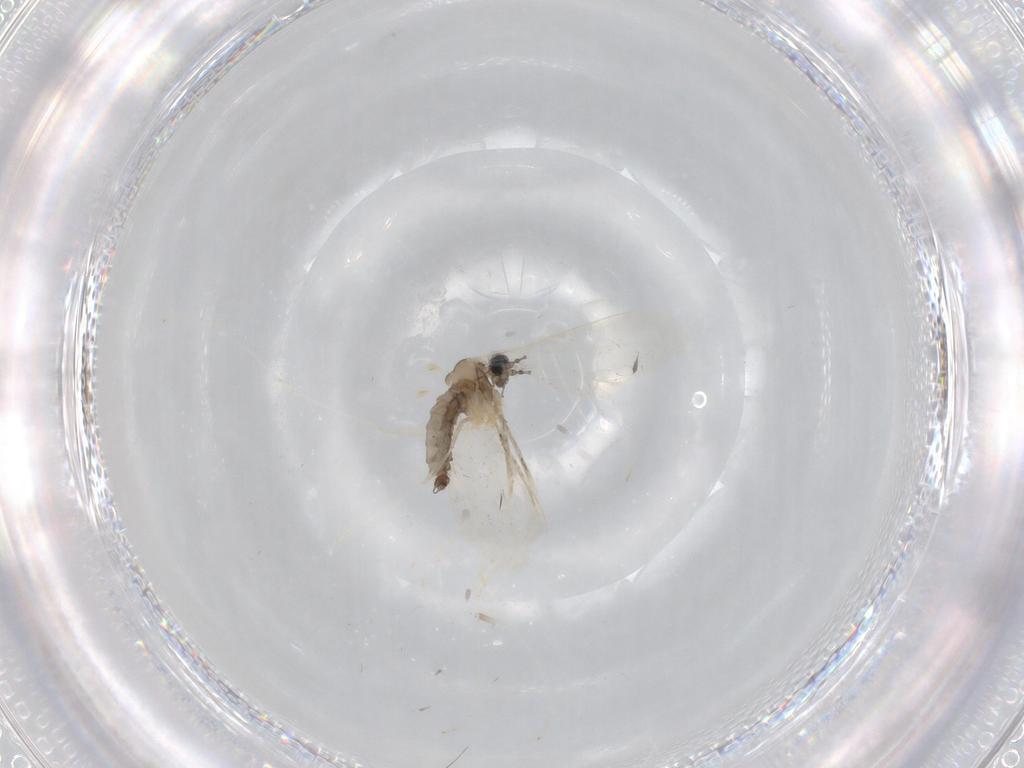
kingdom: Animalia
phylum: Arthropoda
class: Insecta
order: Diptera
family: Cecidomyiidae
